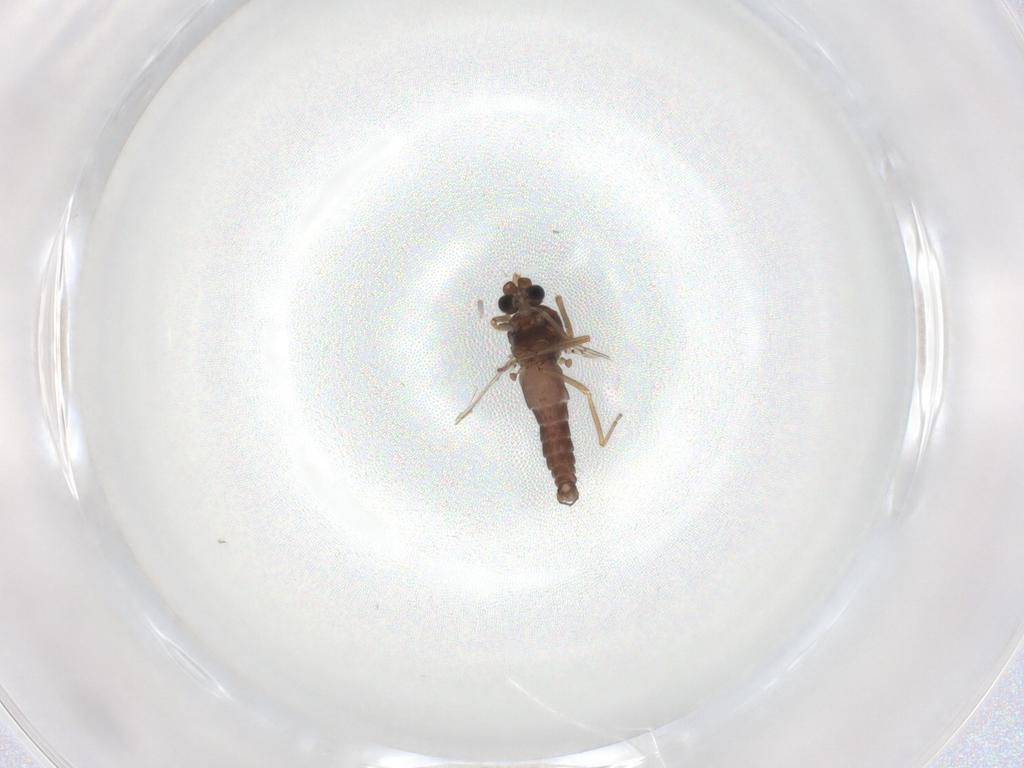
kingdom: Animalia
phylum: Arthropoda
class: Insecta
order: Diptera
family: Ceratopogonidae
